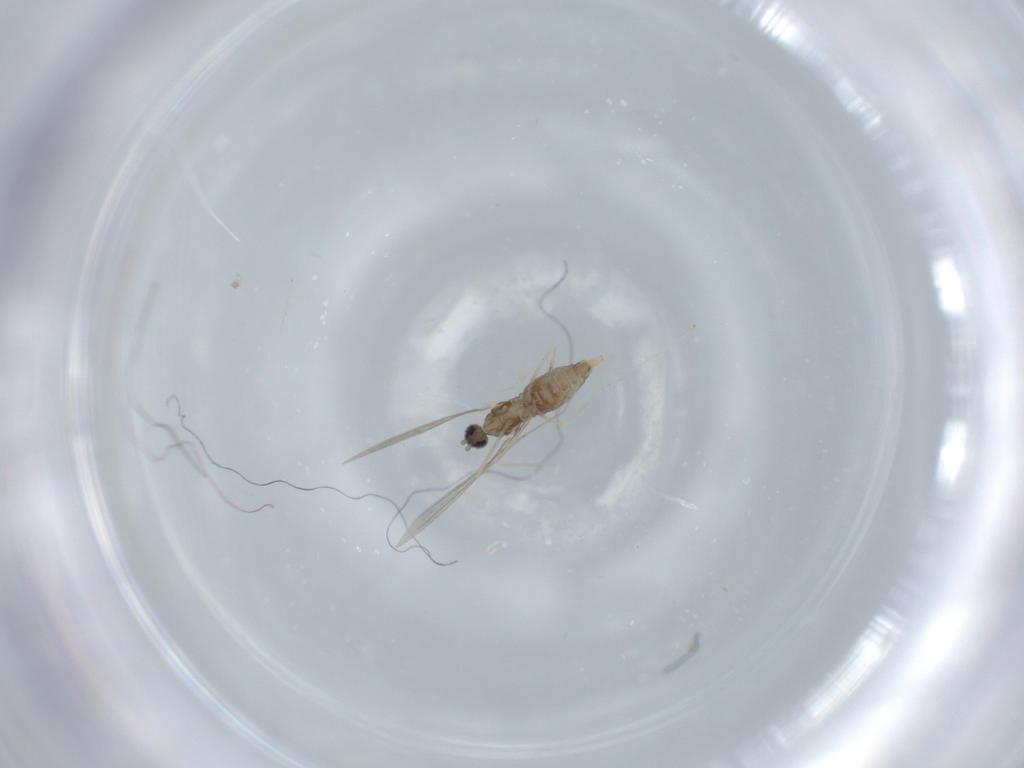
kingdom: Animalia
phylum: Arthropoda
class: Insecta
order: Diptera
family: Cecidomyiidae
